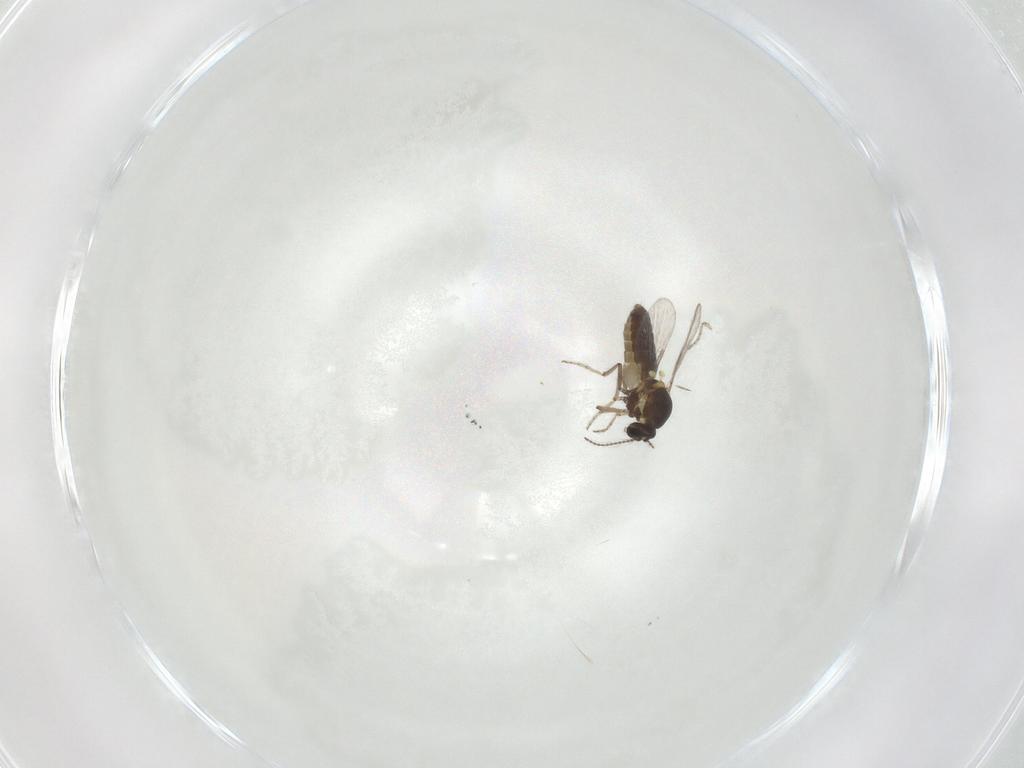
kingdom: Animalia
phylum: Arthropoda
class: Insecta
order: Diptera
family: Ceratopogonidae
